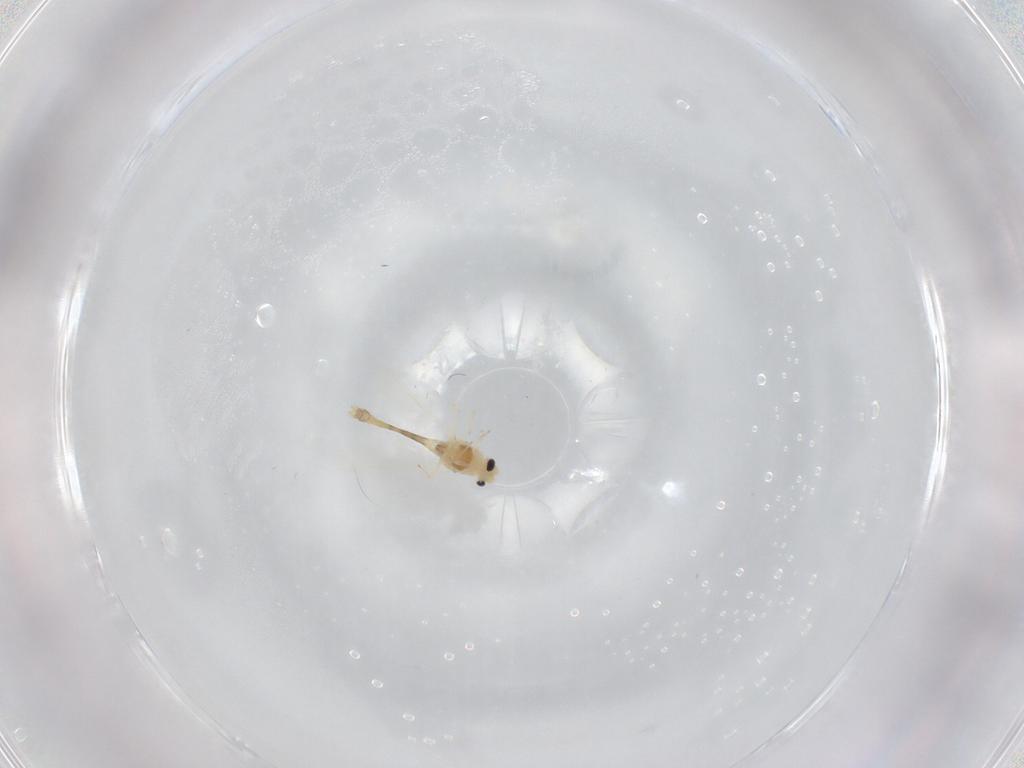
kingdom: Animalia
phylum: Arthropoda
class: Insecta
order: Diptera
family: Chironomidae
